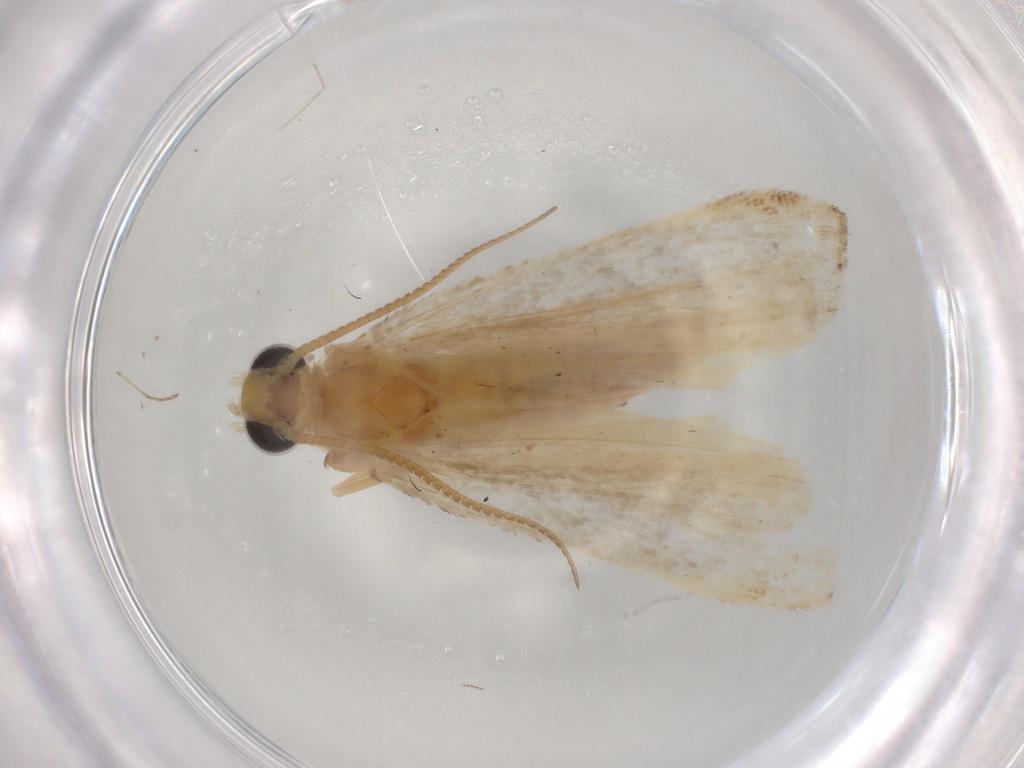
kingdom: Animalia
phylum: Arthropoda
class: Insecta
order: Lepidoptera
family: Pyralidae
